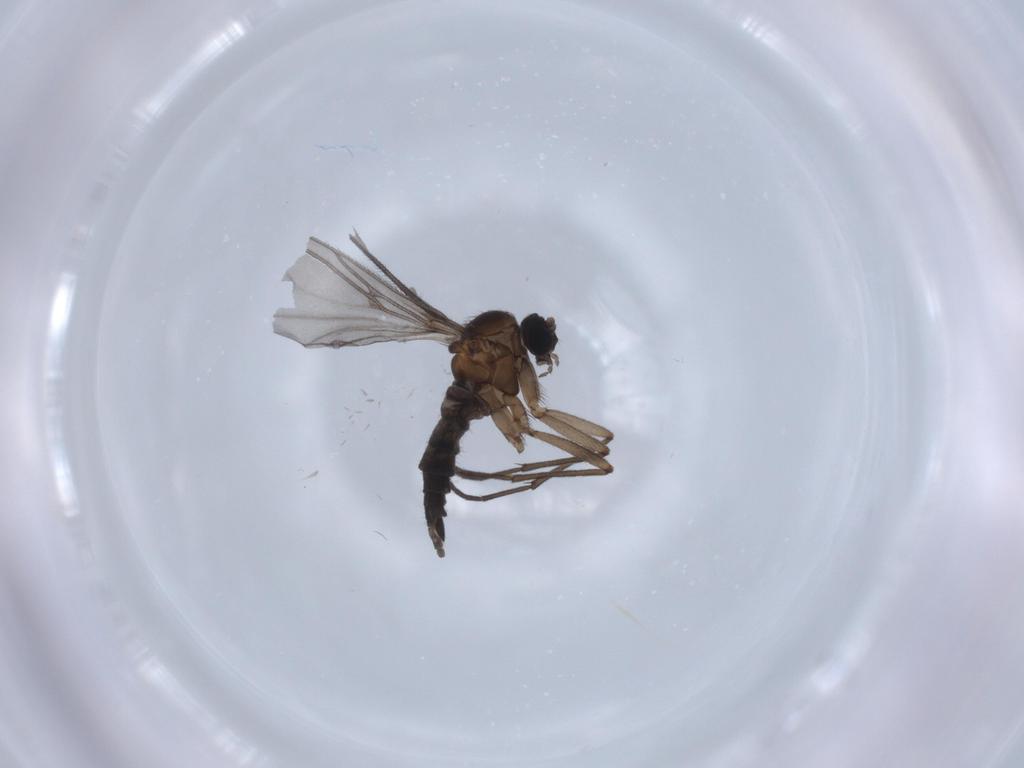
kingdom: Animalia
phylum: Arthropoda
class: Insecta
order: Diptera
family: Sciaridae
